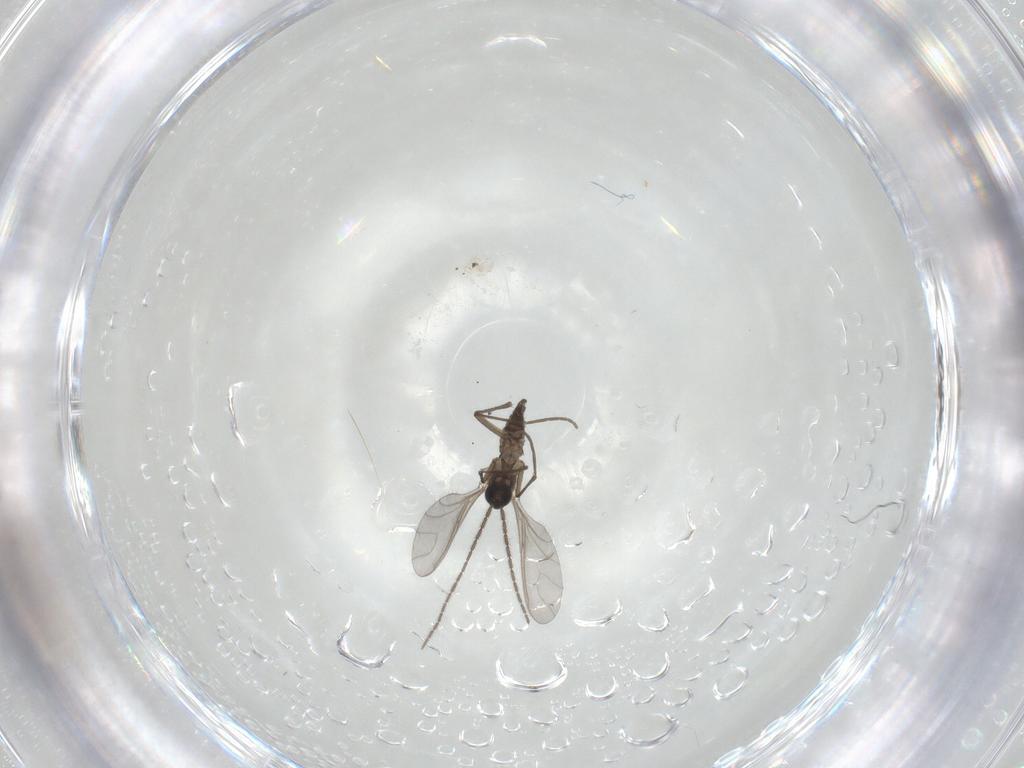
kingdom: Animalia
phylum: Arthropoda
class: Insecta
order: Diptera
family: Sciaridae
